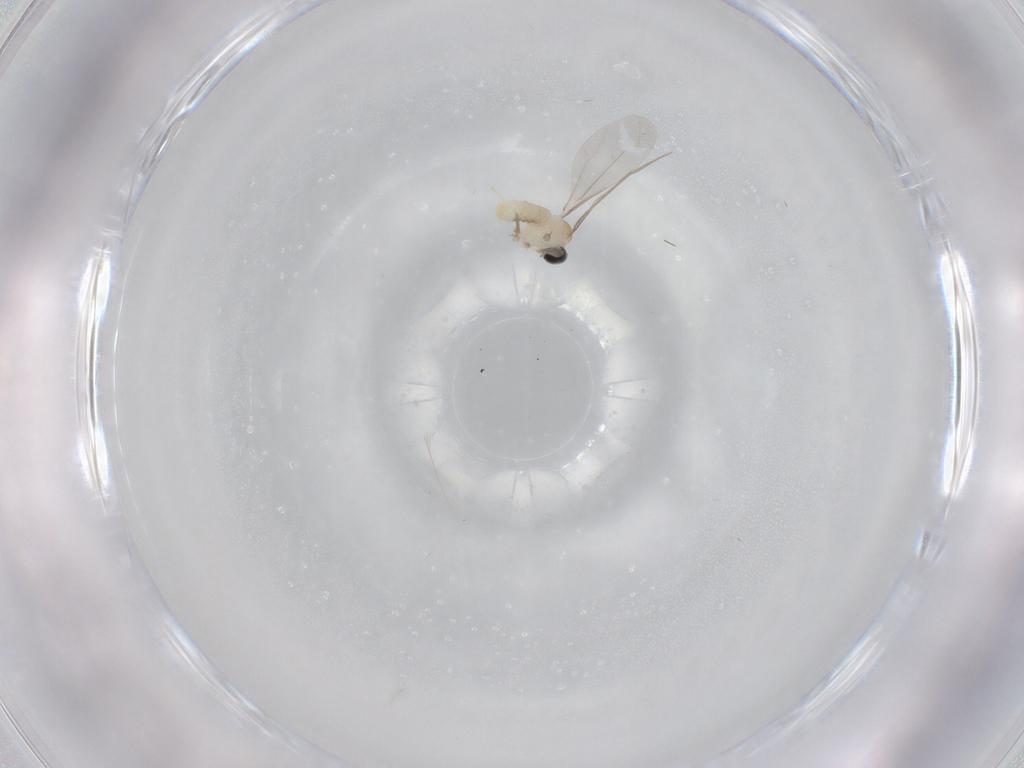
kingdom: Animalia
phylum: Arthropoda
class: Insecta
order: Diptera
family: Cecidomyiidae
